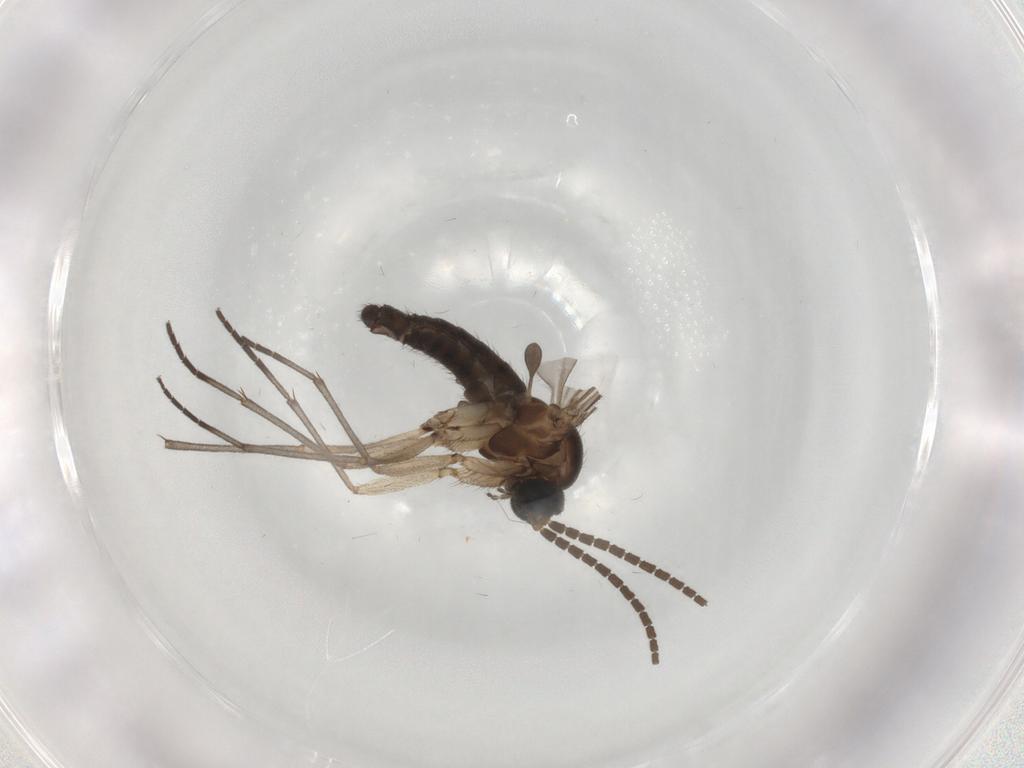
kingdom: Animalia
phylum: Arthropoda
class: Insecta
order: Diptera
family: Sciaridae
